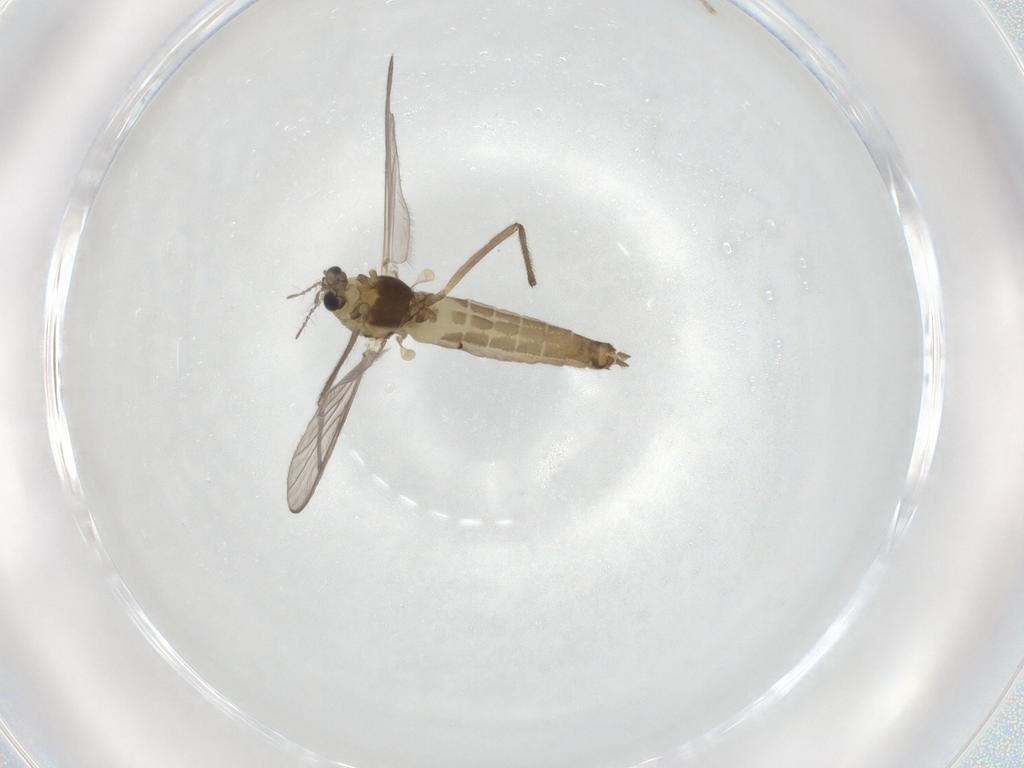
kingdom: Animalia
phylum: Arthropoda
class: Insecta
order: Diptera
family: Chironomidae
